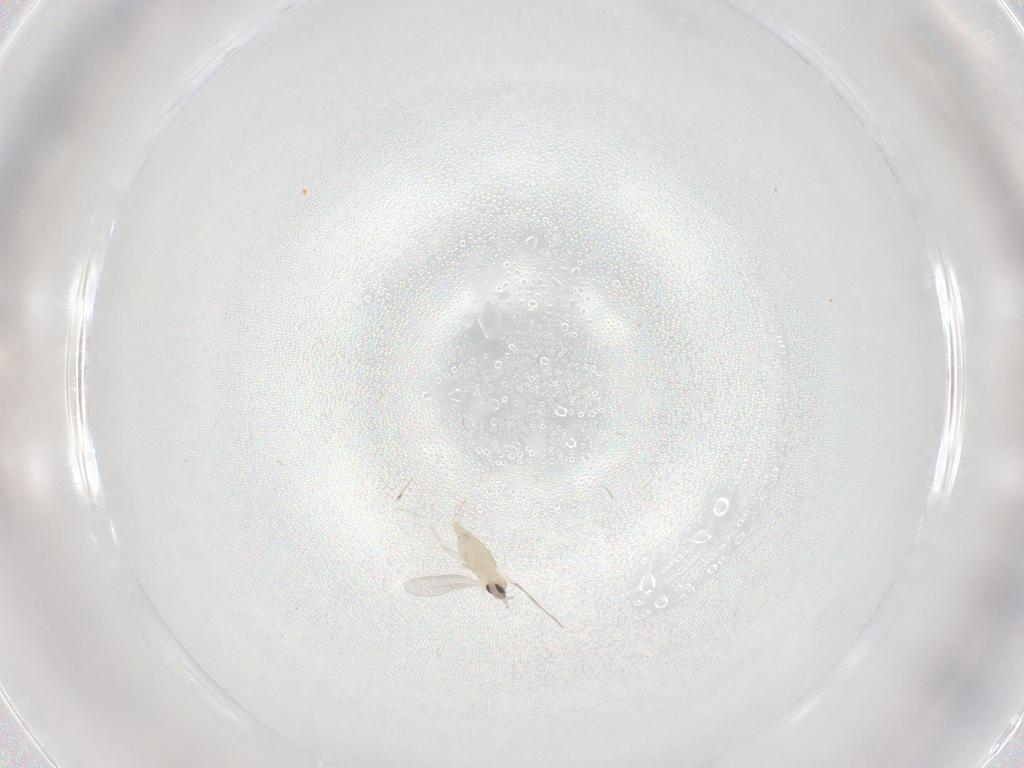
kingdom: Animalia
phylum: Arthropoda
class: Insecta
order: Diptera
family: Cecidomyiidae
